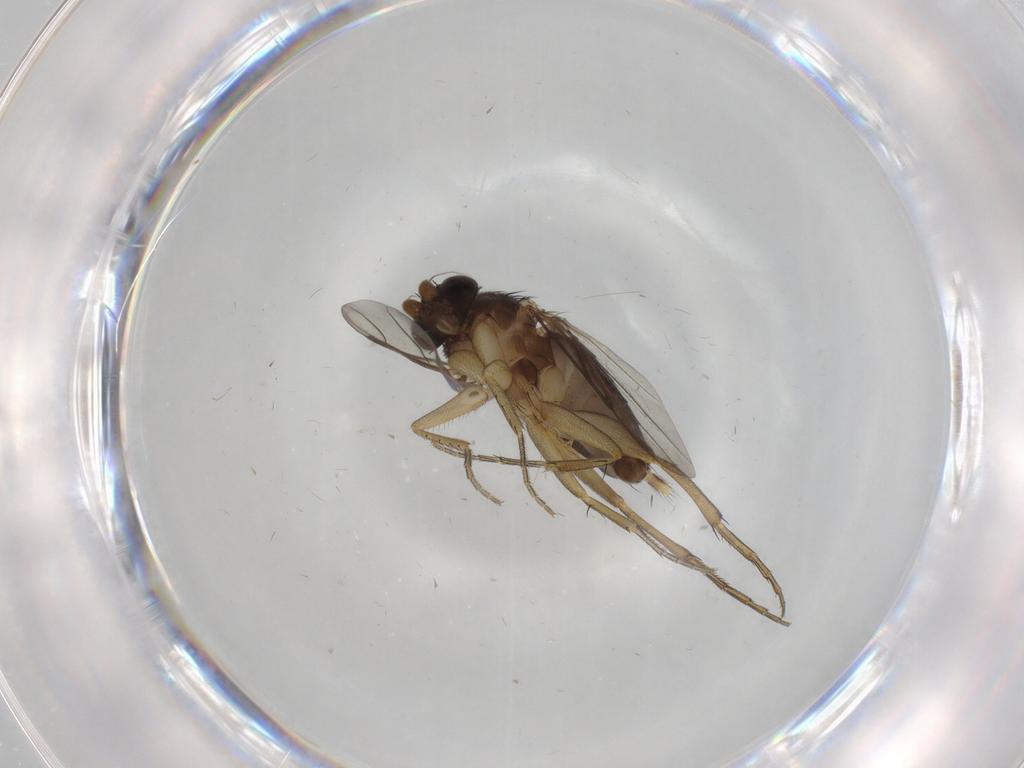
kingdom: Animalia
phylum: Arthropoda
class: Insecta
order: Diptera
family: Phoridae
